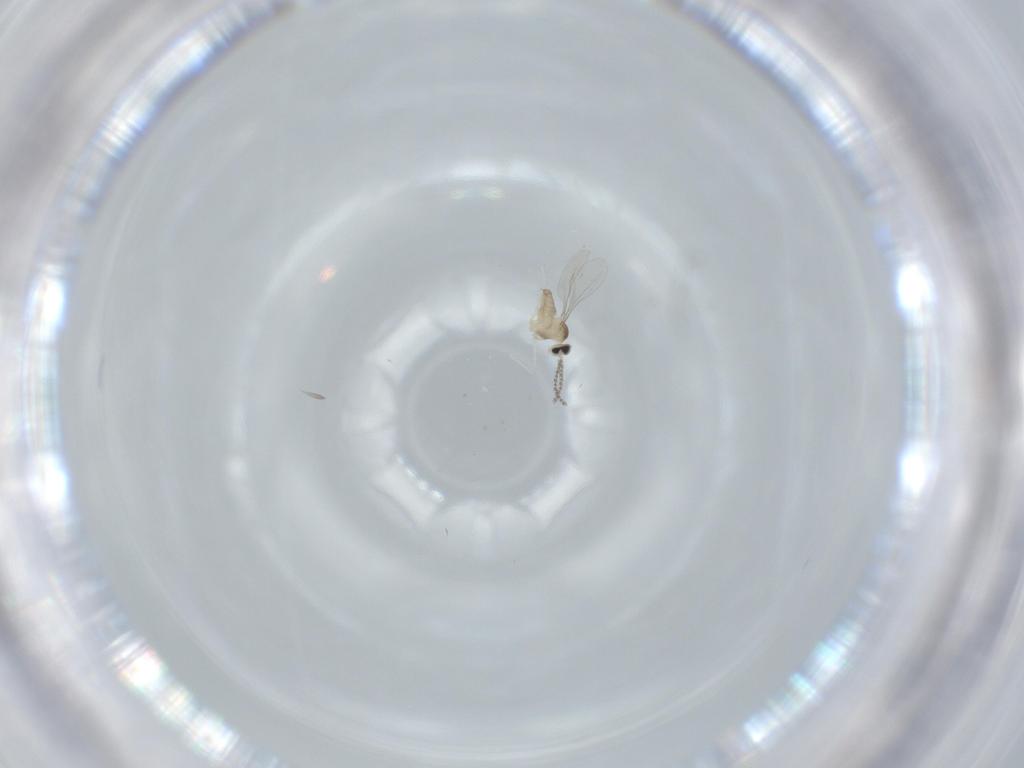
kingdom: Animalia
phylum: Arthropoda
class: Insecta
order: Diptera
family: Cecidomyiidae
